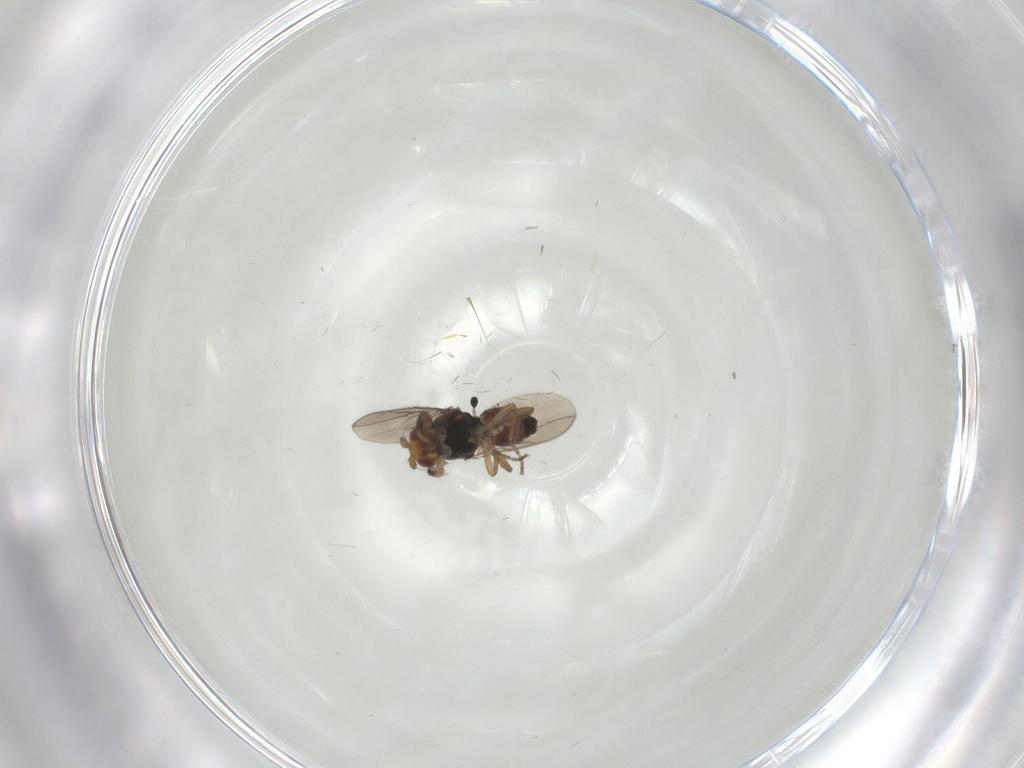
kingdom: Animalia
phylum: Arthropoda
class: Insecta
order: Diptera
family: Sphaeroceridae
